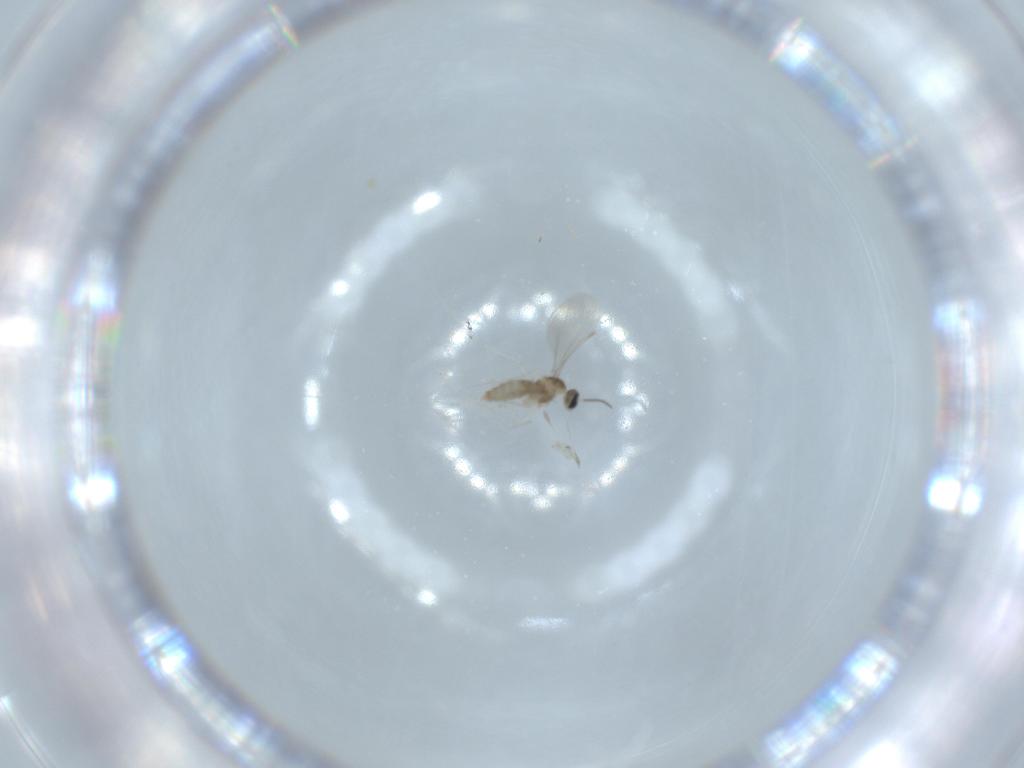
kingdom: Animalia
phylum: Arthropoda
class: Insecta
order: Diptera
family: Cecidomyiidae
